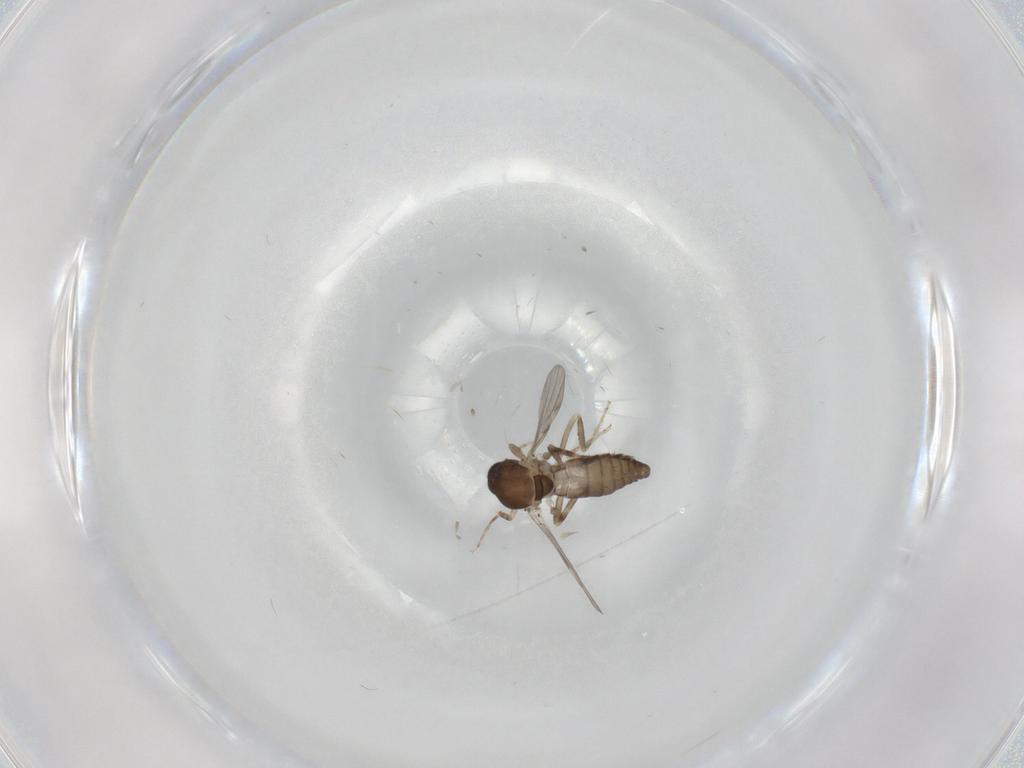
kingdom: Animalia
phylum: Arthropoda
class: Insecta
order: Diptera
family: Ceratopogonidae
